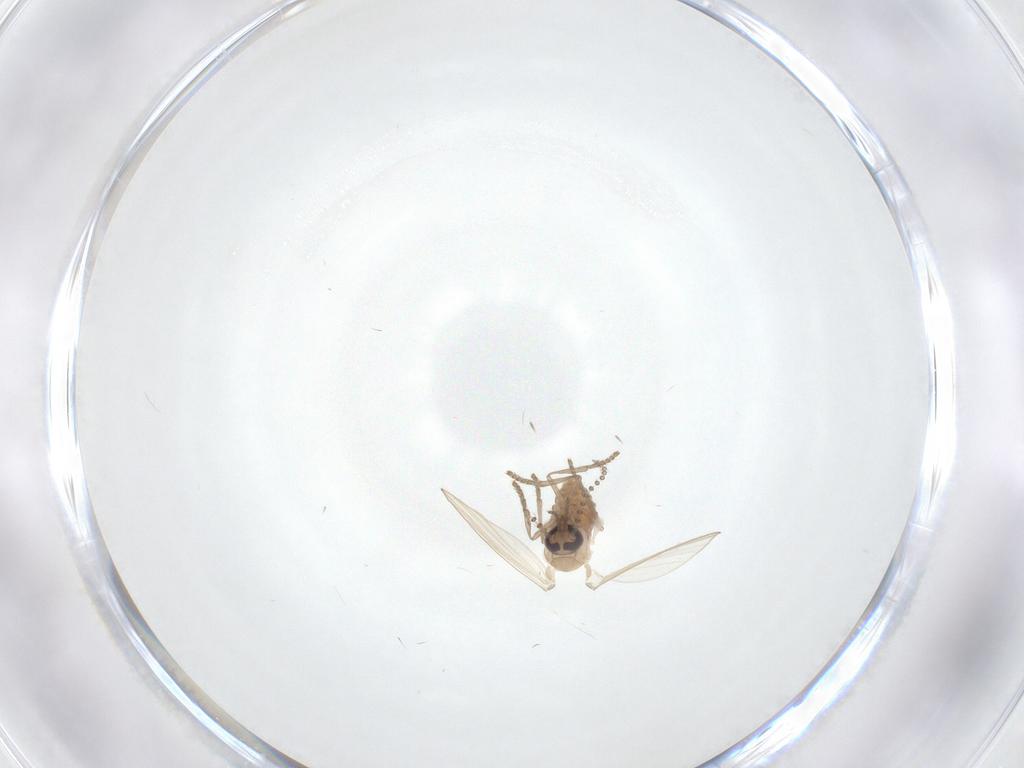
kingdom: Animalia
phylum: Arthropoda
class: Insecta
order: Diptera
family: Psychodidae
